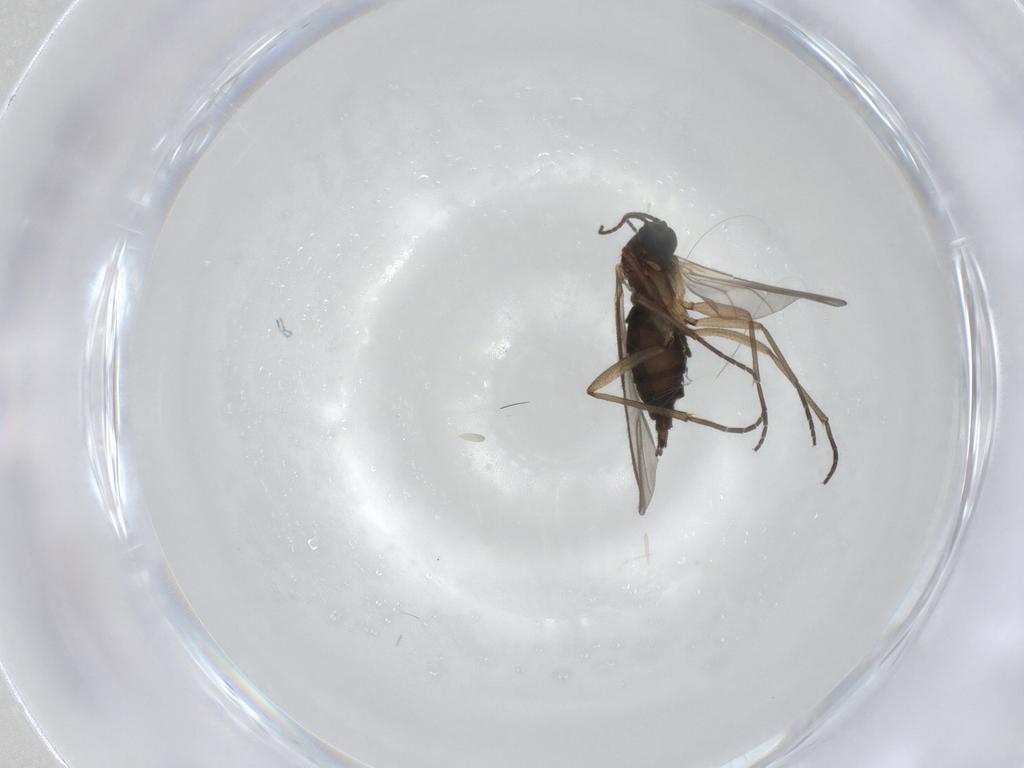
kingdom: Animalia
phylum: Arthropoda
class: Insecta
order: Diptera
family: Sciaridae
